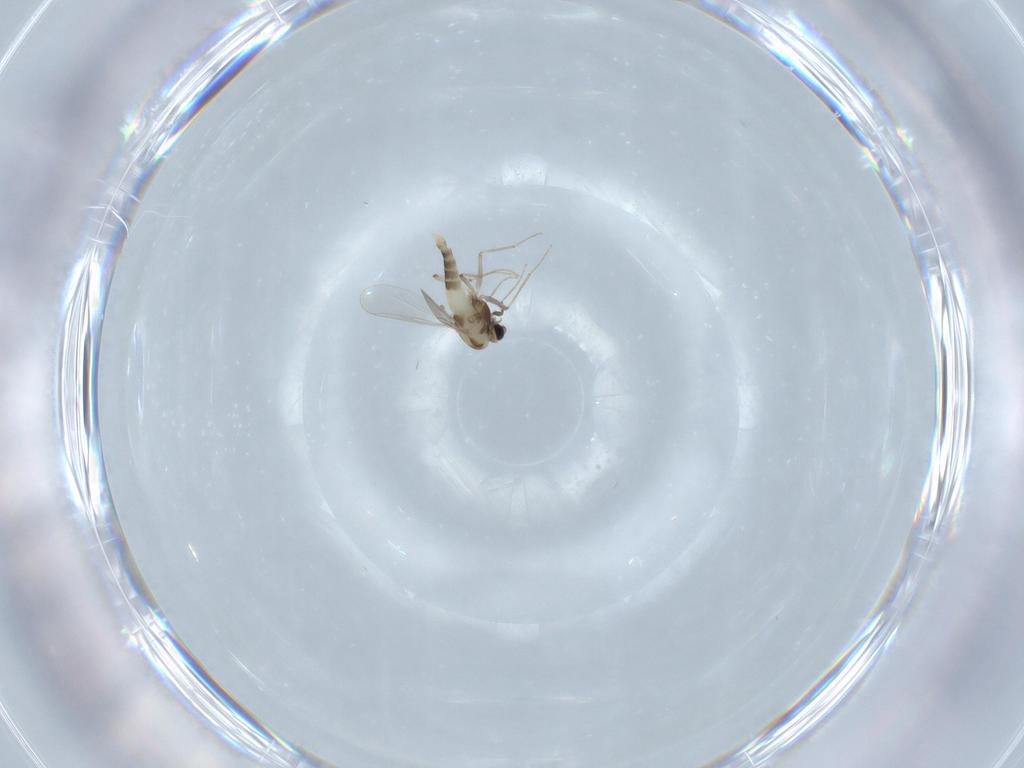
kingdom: Animalia
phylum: Arthropoda
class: Insecta
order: Diptera
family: Chironomidae
